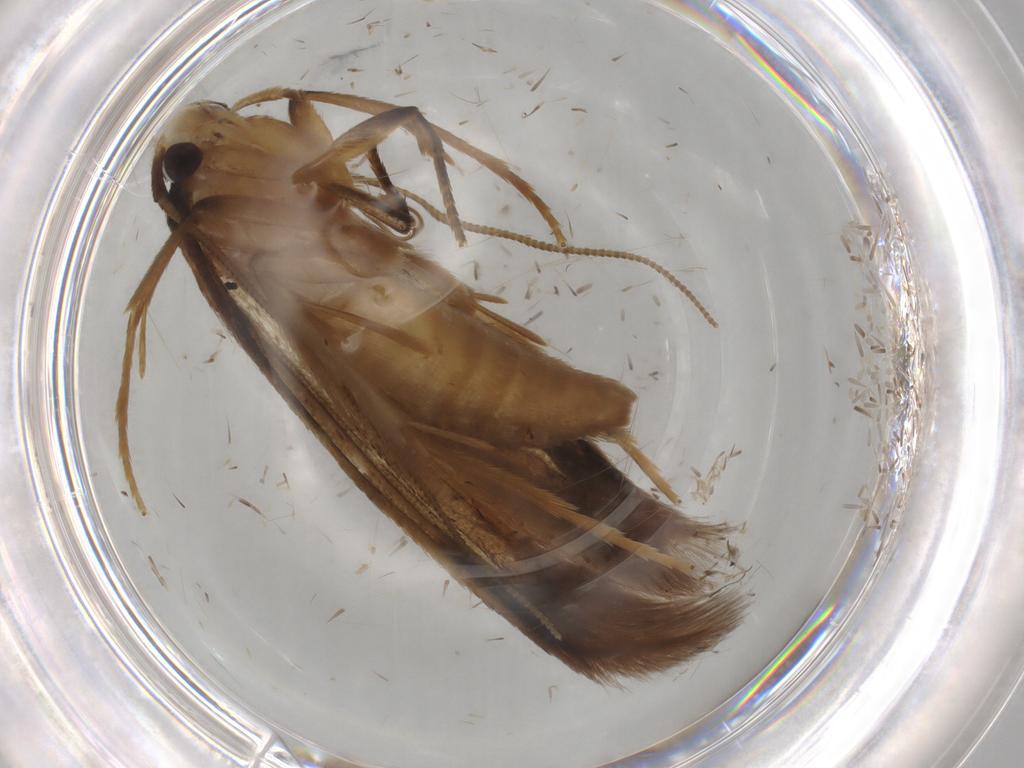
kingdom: Animalia
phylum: Arthropoda
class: Insecta
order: Lepidoptera
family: Tineidae
